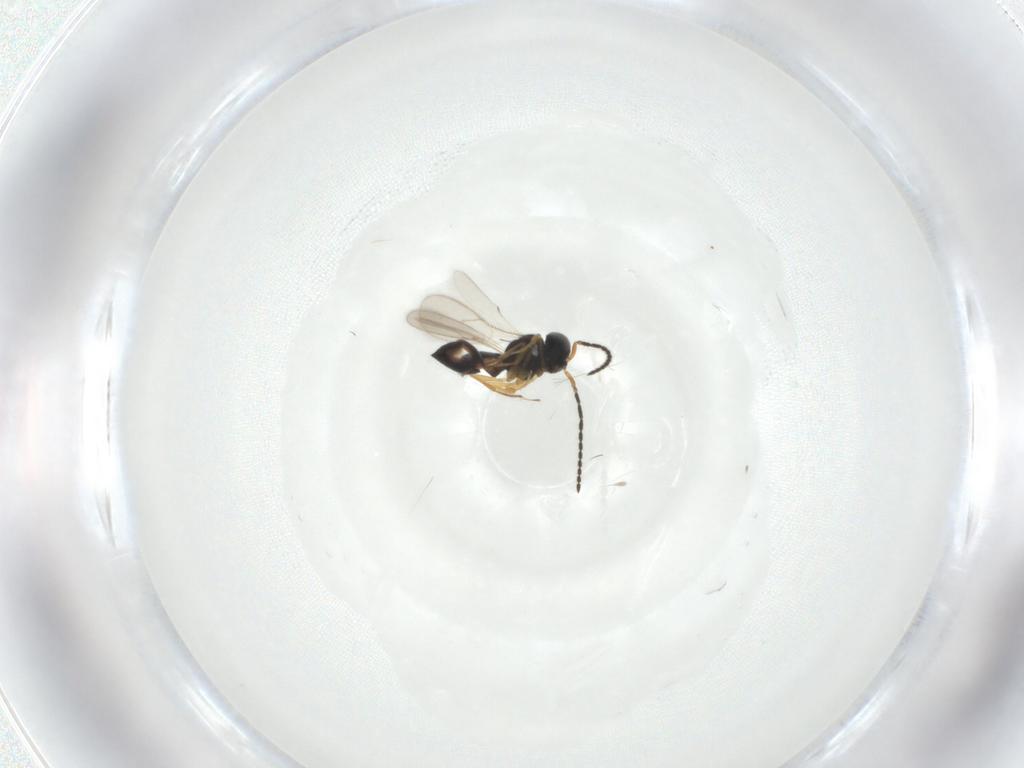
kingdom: Animalia
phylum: Arthropoda
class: Insecta
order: Hymenoptera
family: Scelionidae
